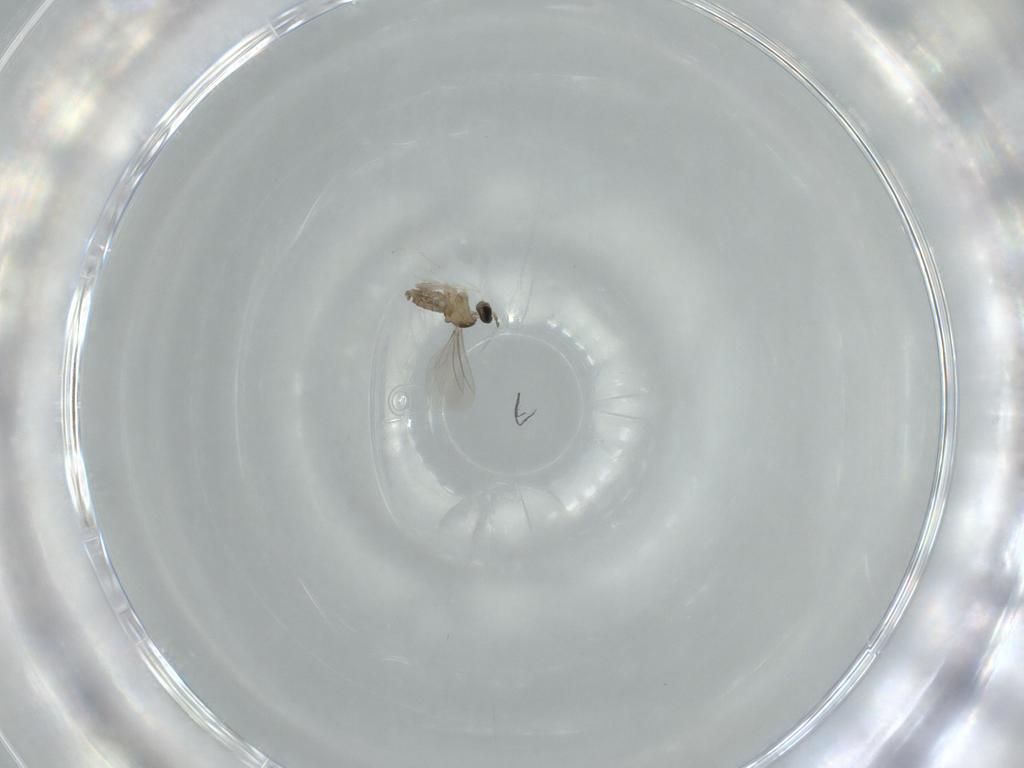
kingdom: Animalia
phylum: Arthropoda
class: Insecta
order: Diptera
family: Cecidomyiidae
